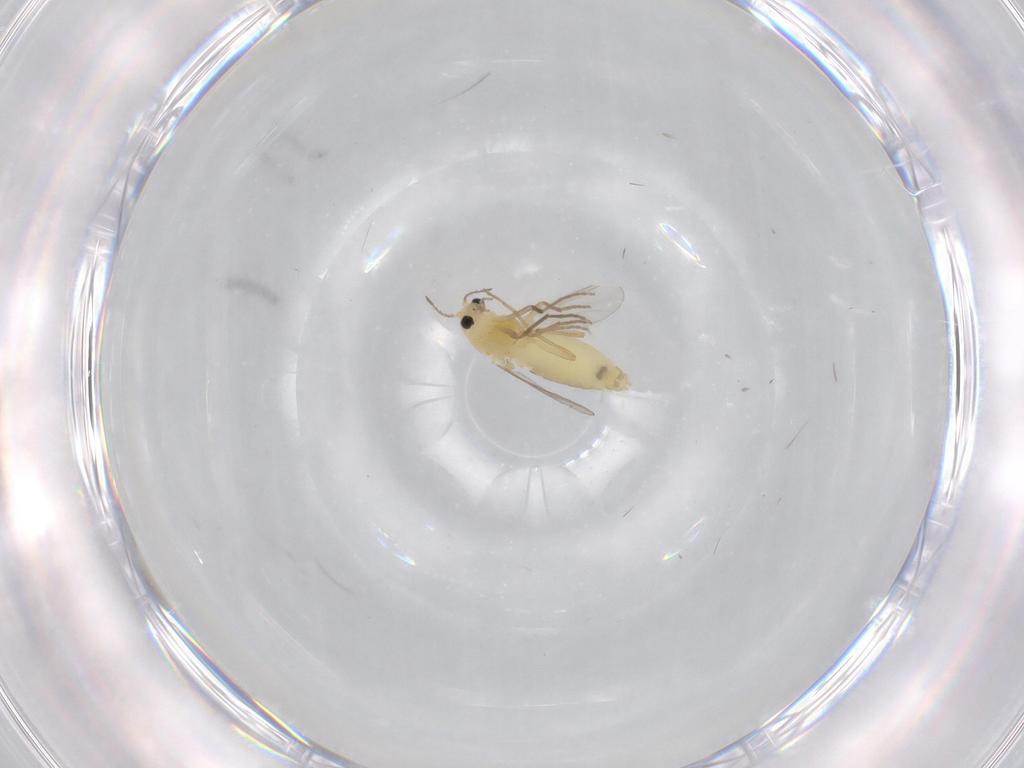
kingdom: Animalia
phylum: Arthropoda
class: Insecta
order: Diptera
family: Chironomidae
